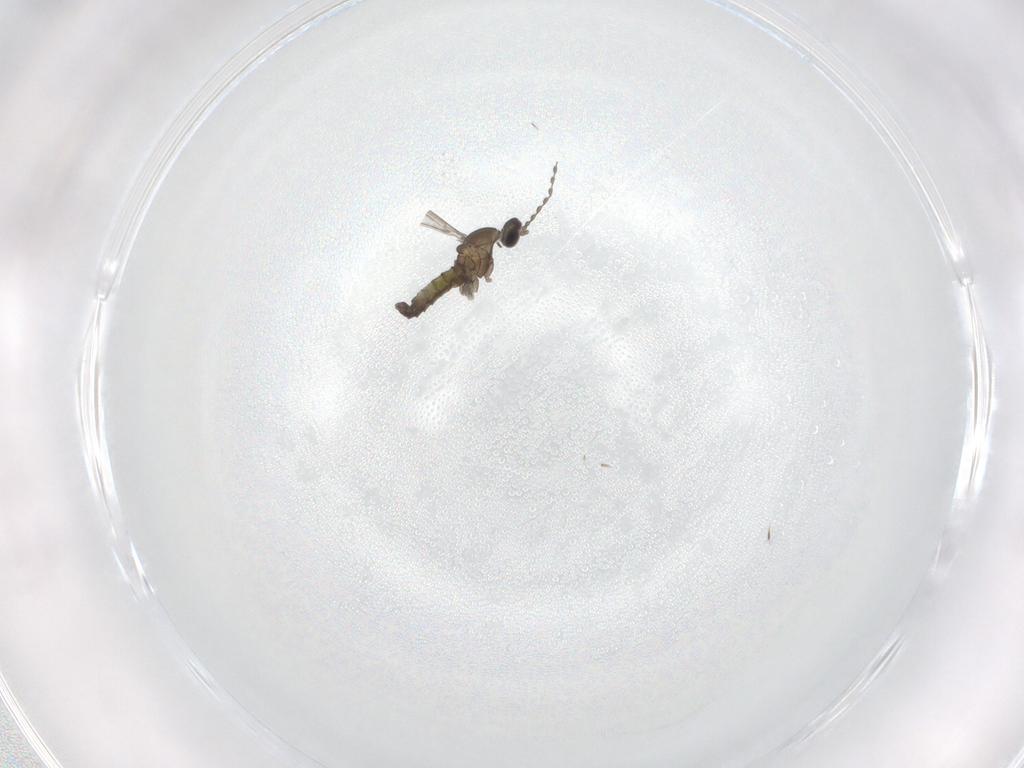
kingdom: Animalia
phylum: Arthropoda
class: Insecta
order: Diptera
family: Cecidomyiidae
